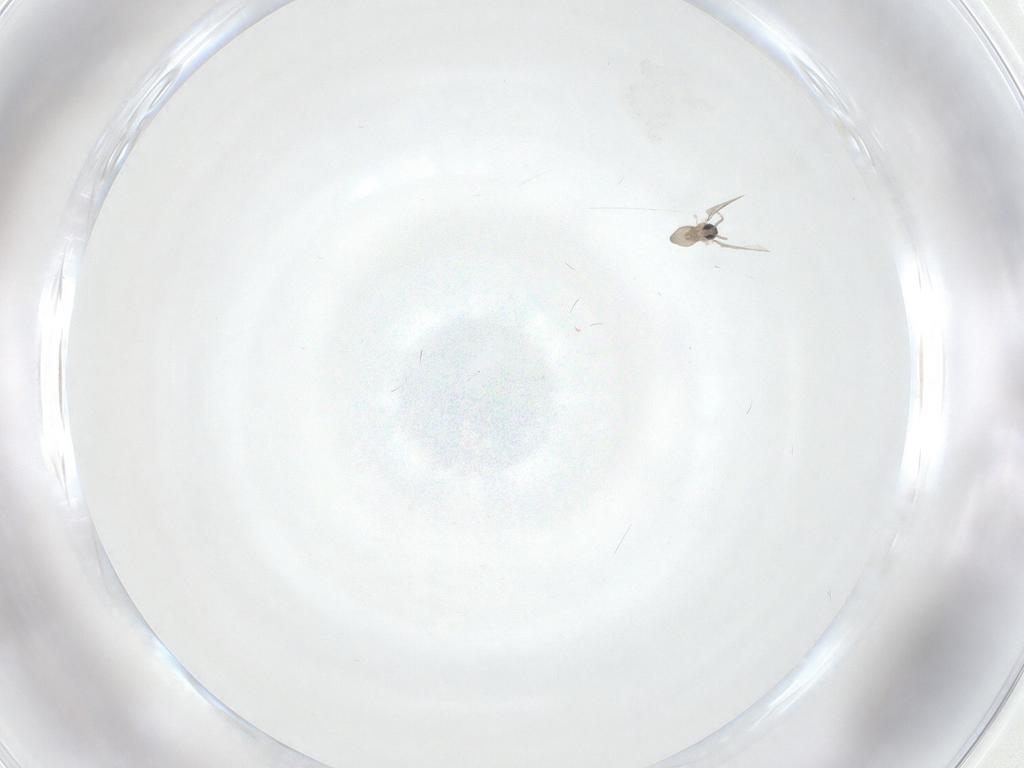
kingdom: Animalia
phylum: Arthropoda
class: Insecta
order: Diptera
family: Cecidomyiidae
